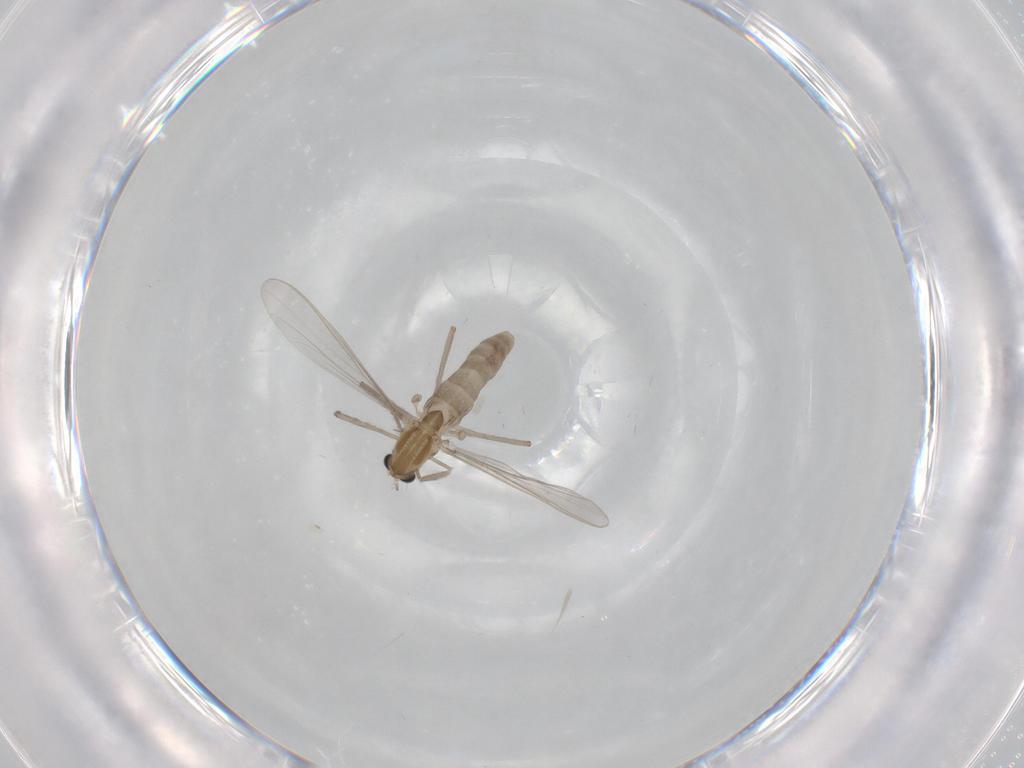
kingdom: Animalia
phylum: Arthropoda
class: Insecta
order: Diptera
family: Chironomidae
